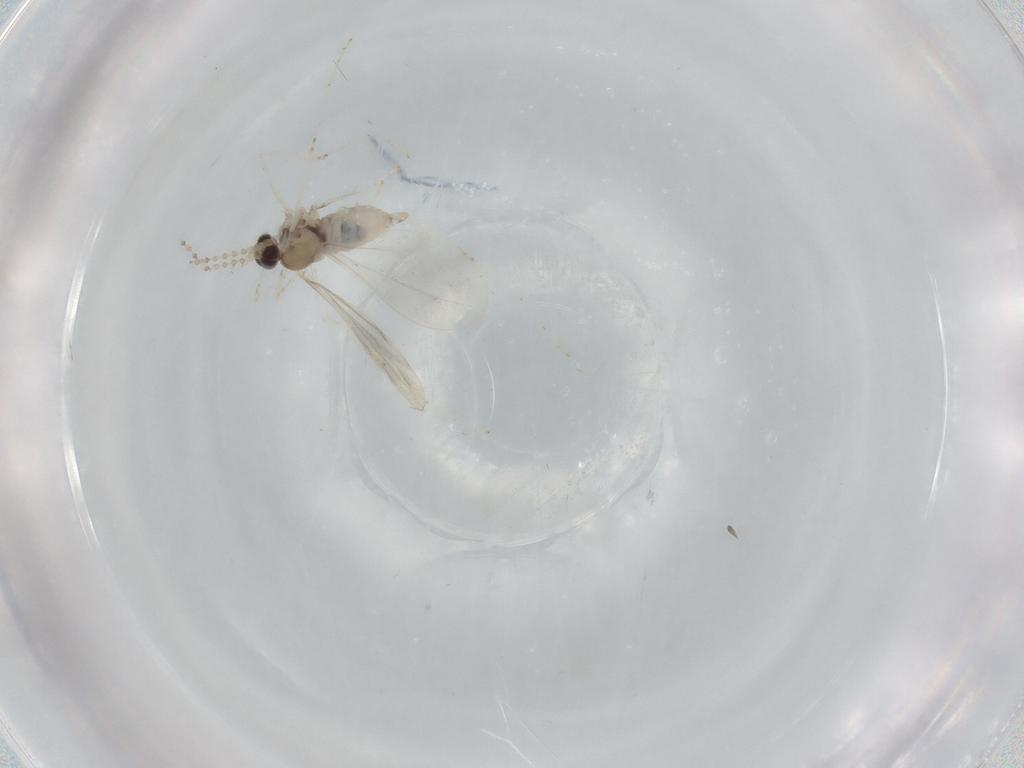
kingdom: Animalia
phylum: Arthropoda
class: Insecta
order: Diptera
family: Cecidomyiidae
